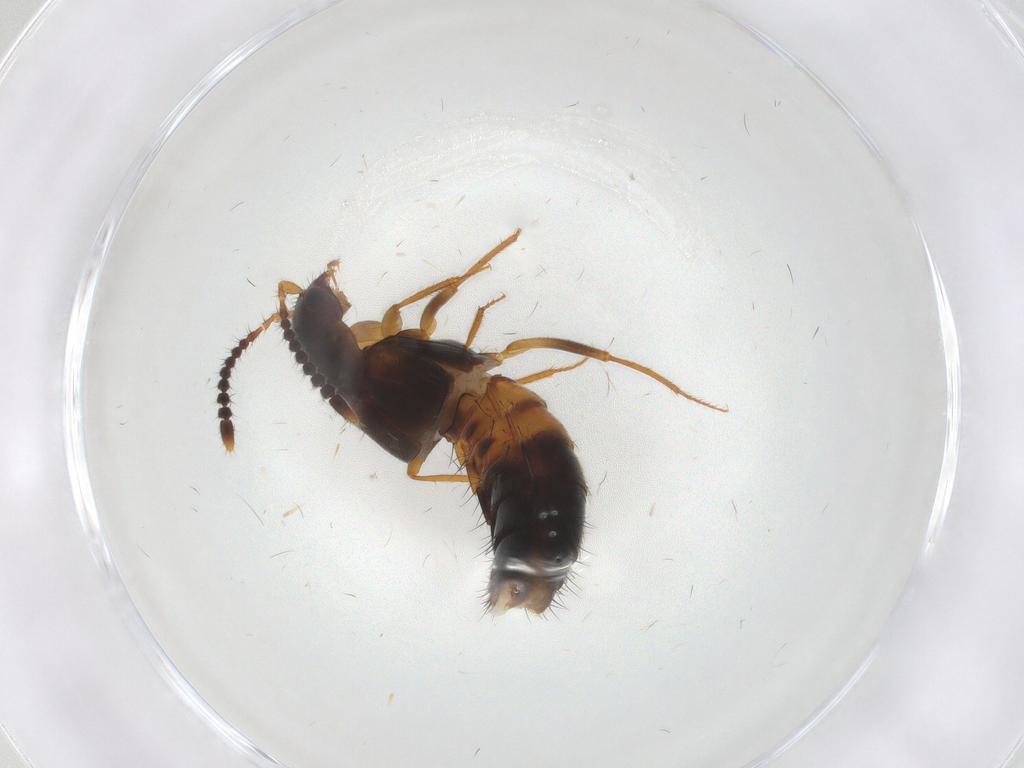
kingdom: Animalia
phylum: Arthropoda
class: Insecta
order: Coleoptera
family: Staphylinidae
